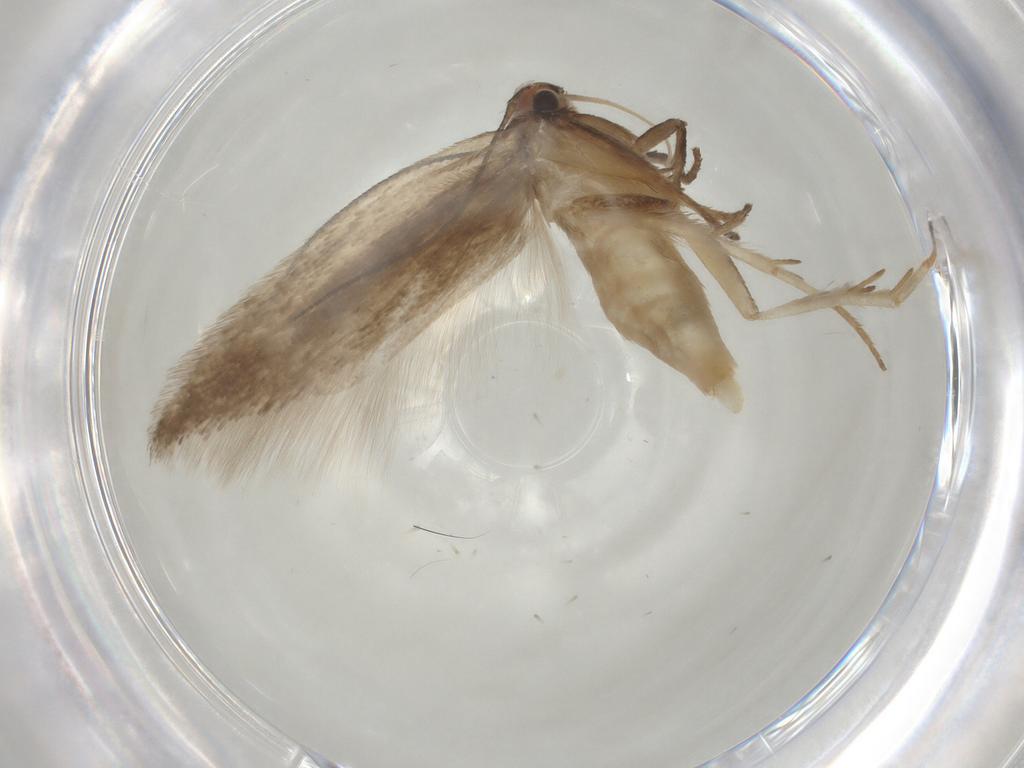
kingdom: Animalia
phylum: Arthropoda
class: Insecta
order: Lepidoptera
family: Gelechiidae
